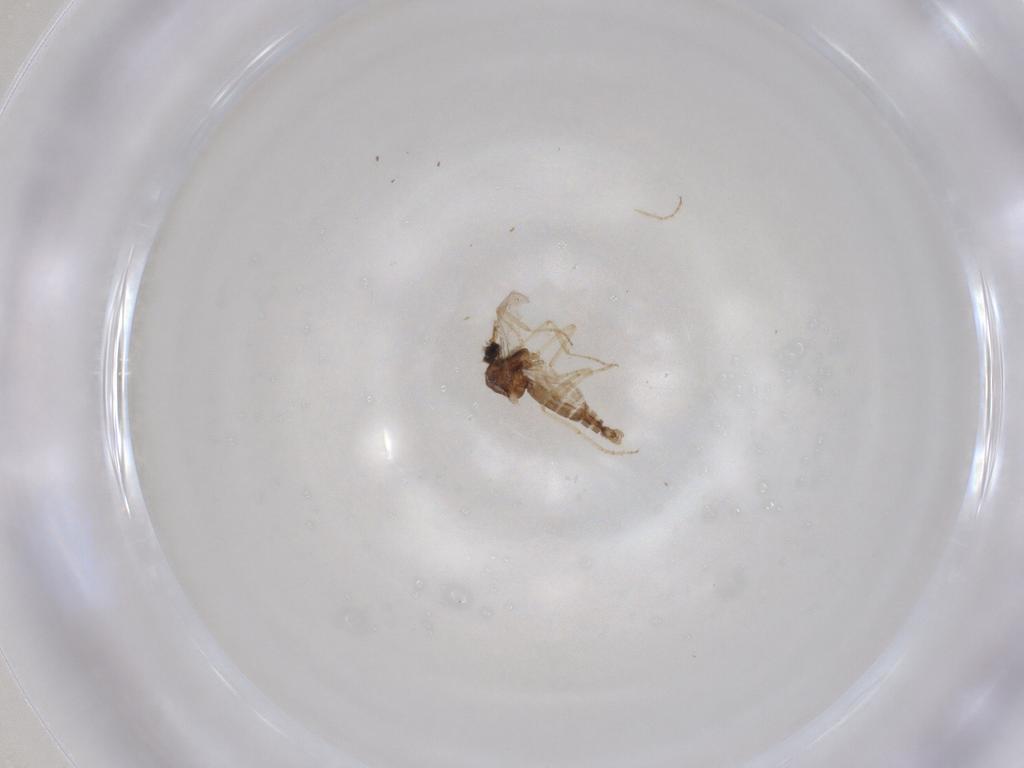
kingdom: Animalia
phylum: Arthropoda
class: Insecta
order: Diptera
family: Ceratopogonidae
